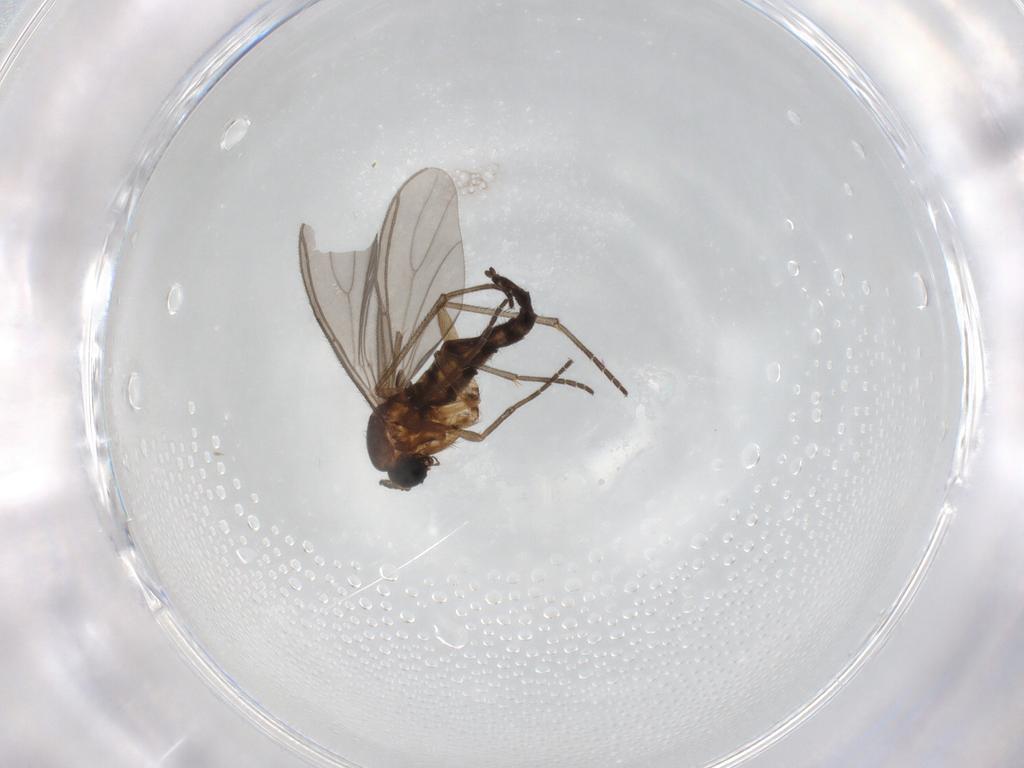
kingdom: Animalia
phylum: Arthropoda
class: Insecta
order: Diptera
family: Sciaridae
